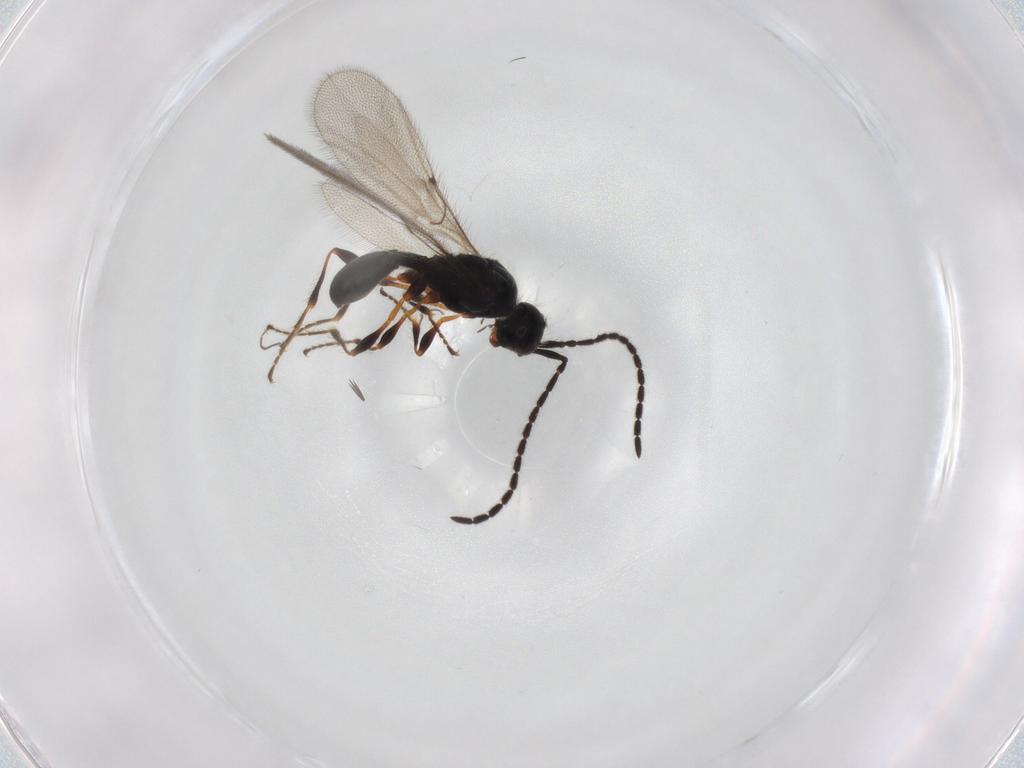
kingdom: Animalia
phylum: Arthropoda
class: Insecta
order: Hymenoptera
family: Diapriidae
